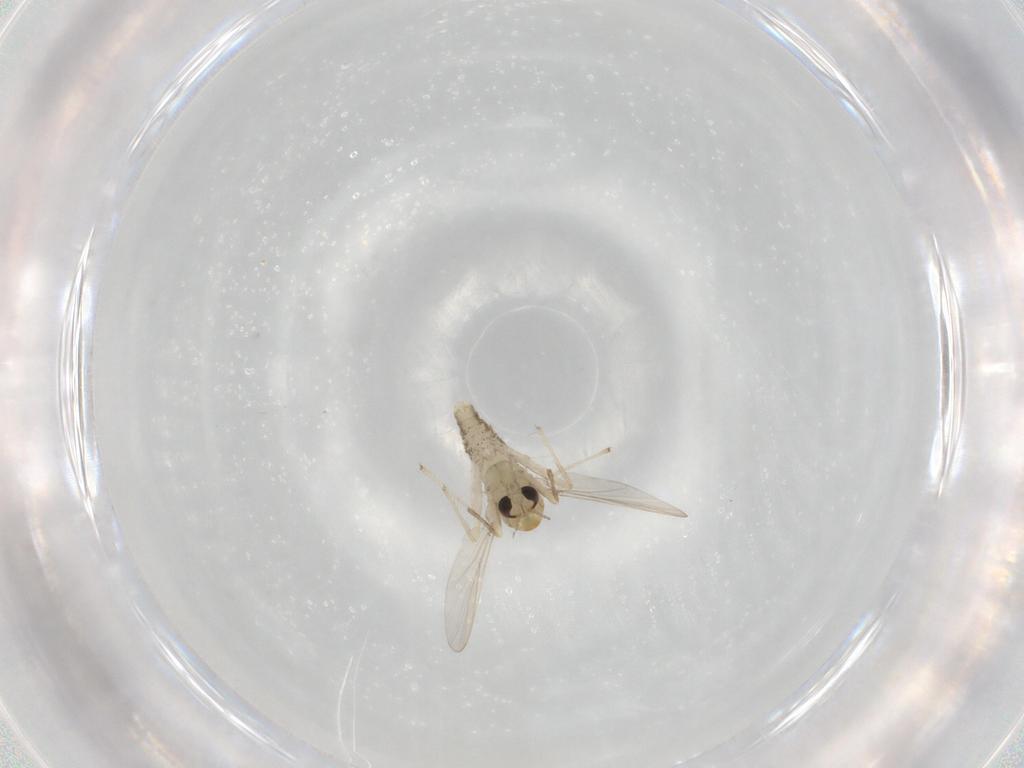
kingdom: Animalia
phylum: Arthropoda
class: Insecta
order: Diptera
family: Chironomidae
